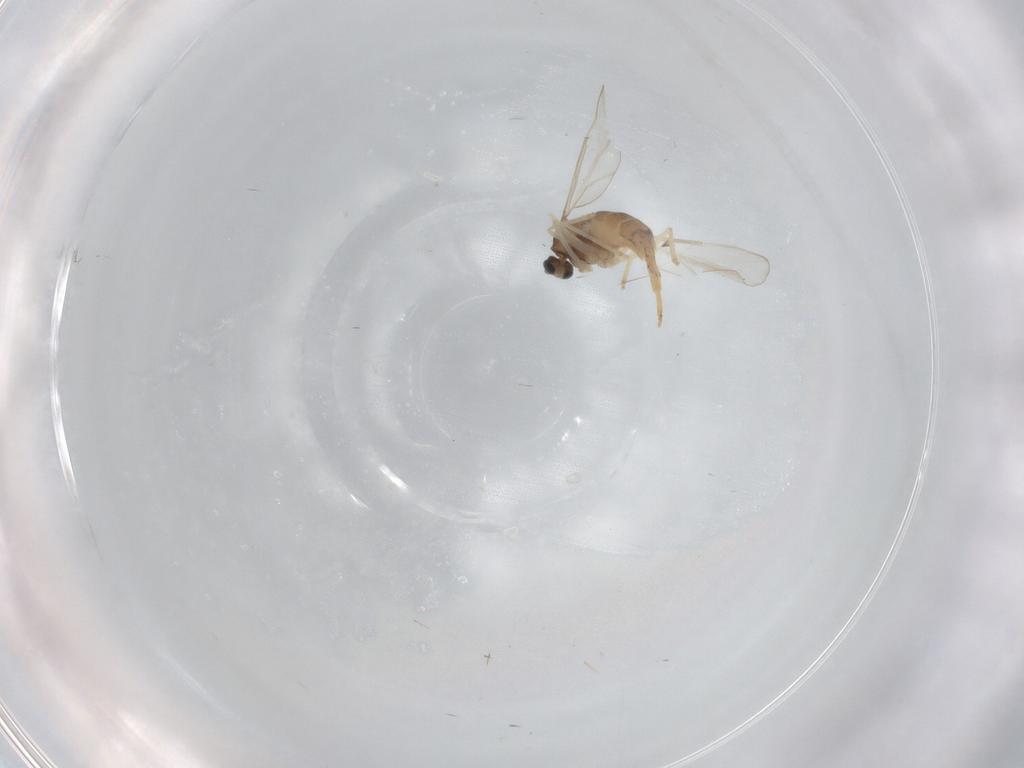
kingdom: Animalia
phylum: Arthropoda
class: Insecta
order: Diptera
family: Cecidomyiidae
